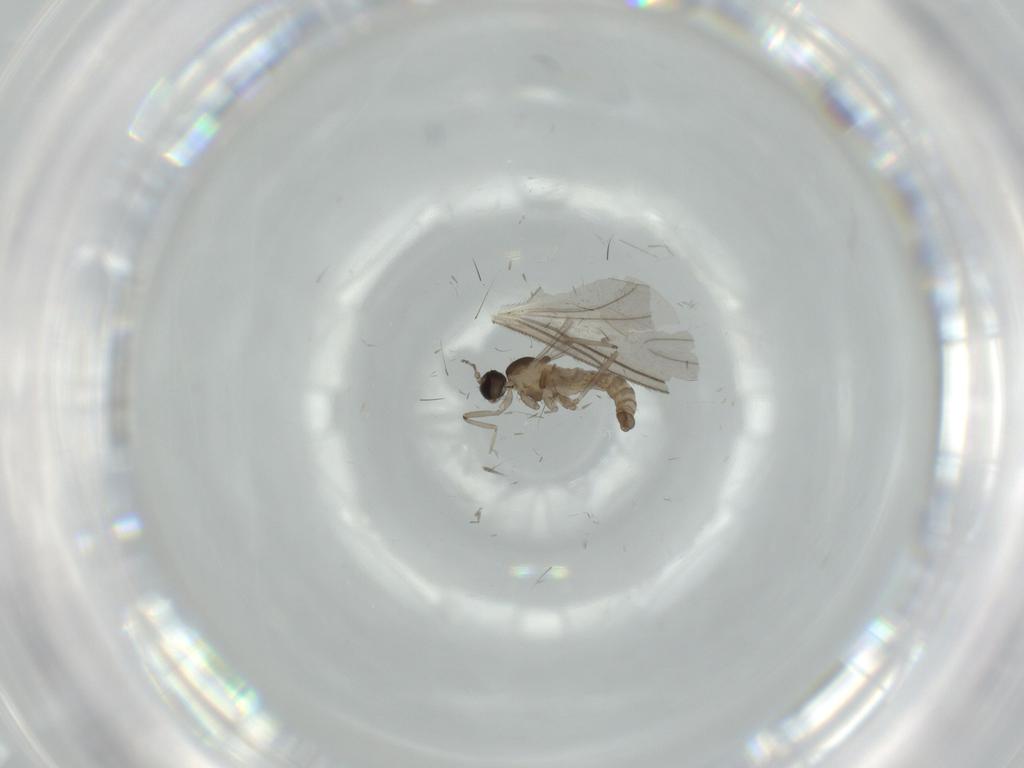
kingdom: Animalia
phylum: Arthropoda
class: Insecta
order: Diptera
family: Cecidomyiidae
